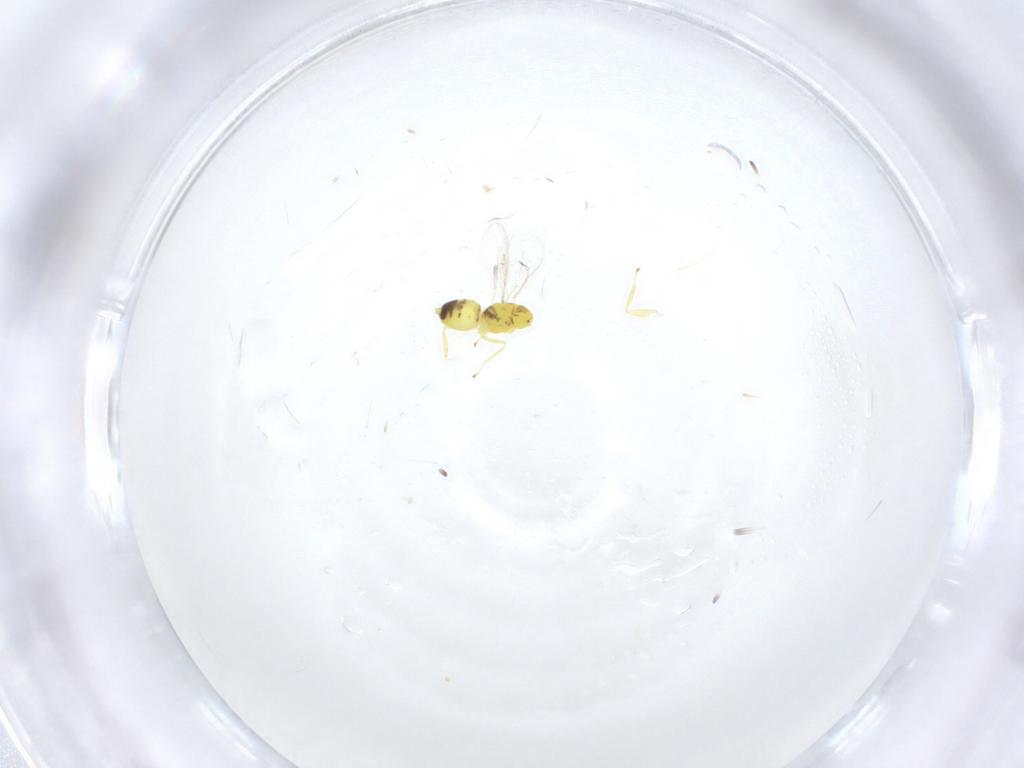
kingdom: Animalia
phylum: Arthropoda
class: Insecta
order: Hymenoptera
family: Eulophidae
